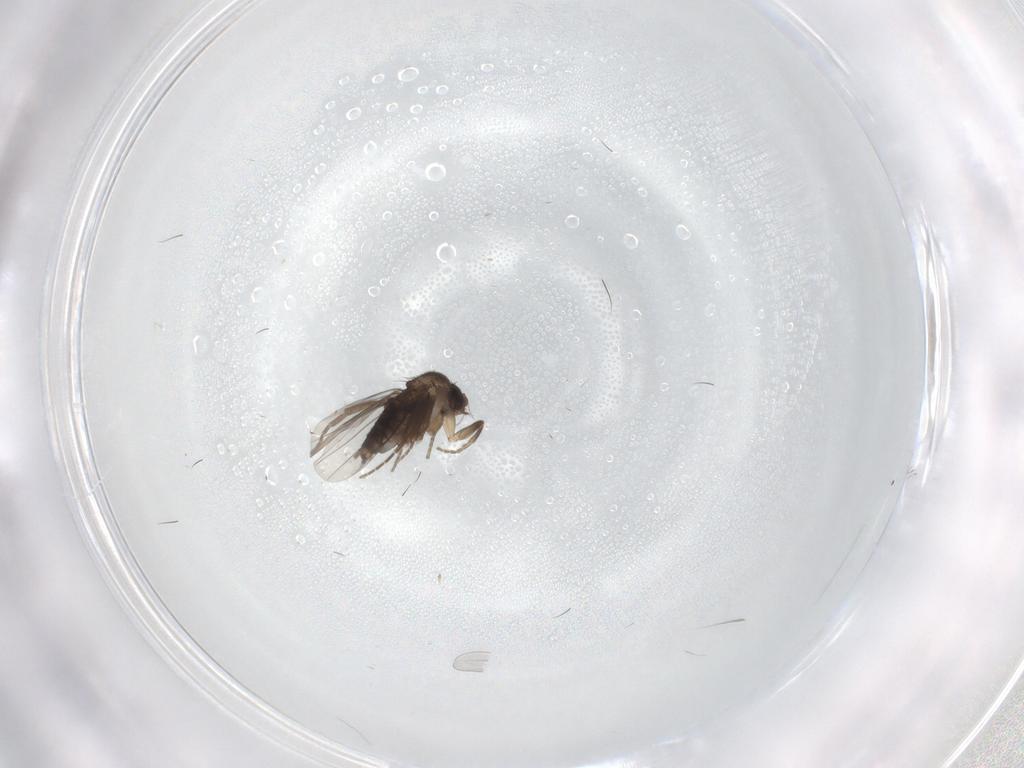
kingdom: Animalia
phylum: Arthropoda
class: Insecta
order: Diptera
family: Phoridae
